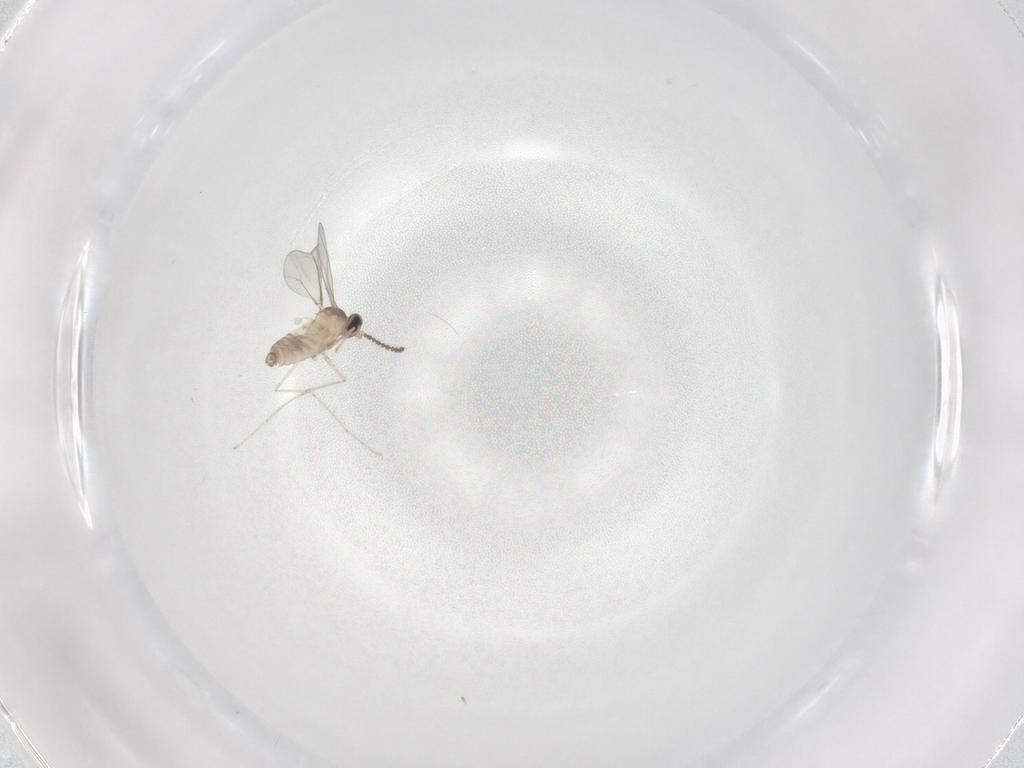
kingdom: Animalia
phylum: Arthropoda
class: Insecta
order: Diptera
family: Cecidomyiidae
